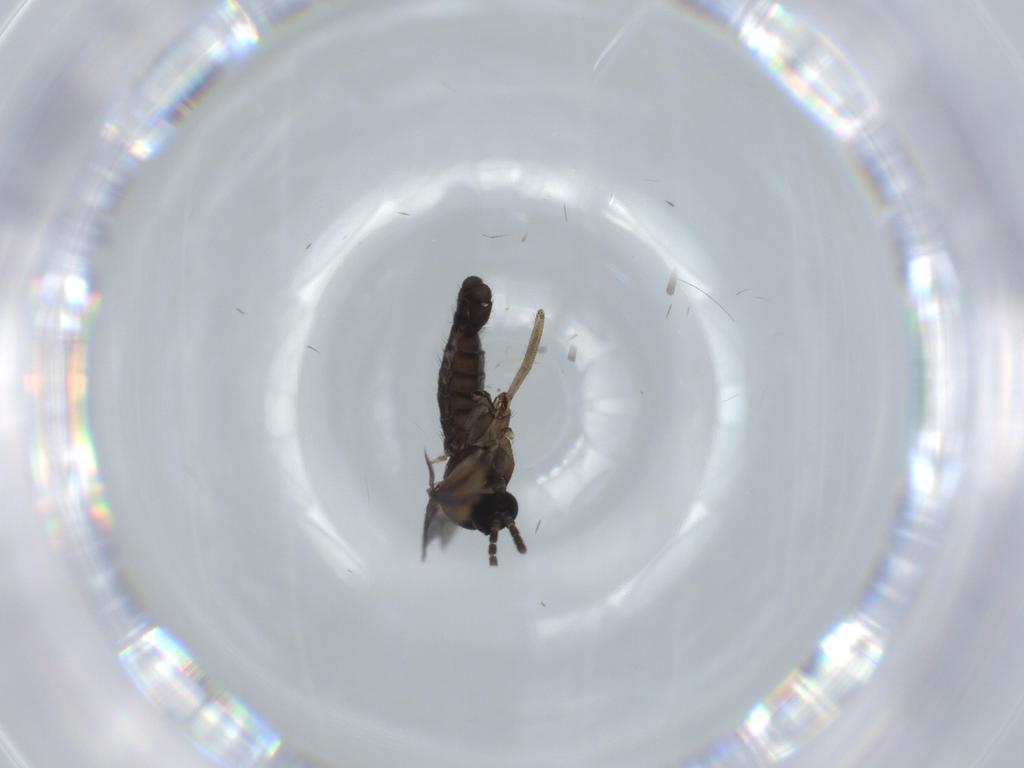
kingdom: Animalia
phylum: Arthropoda
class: Insecta
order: Diptera
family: Sciaridae
